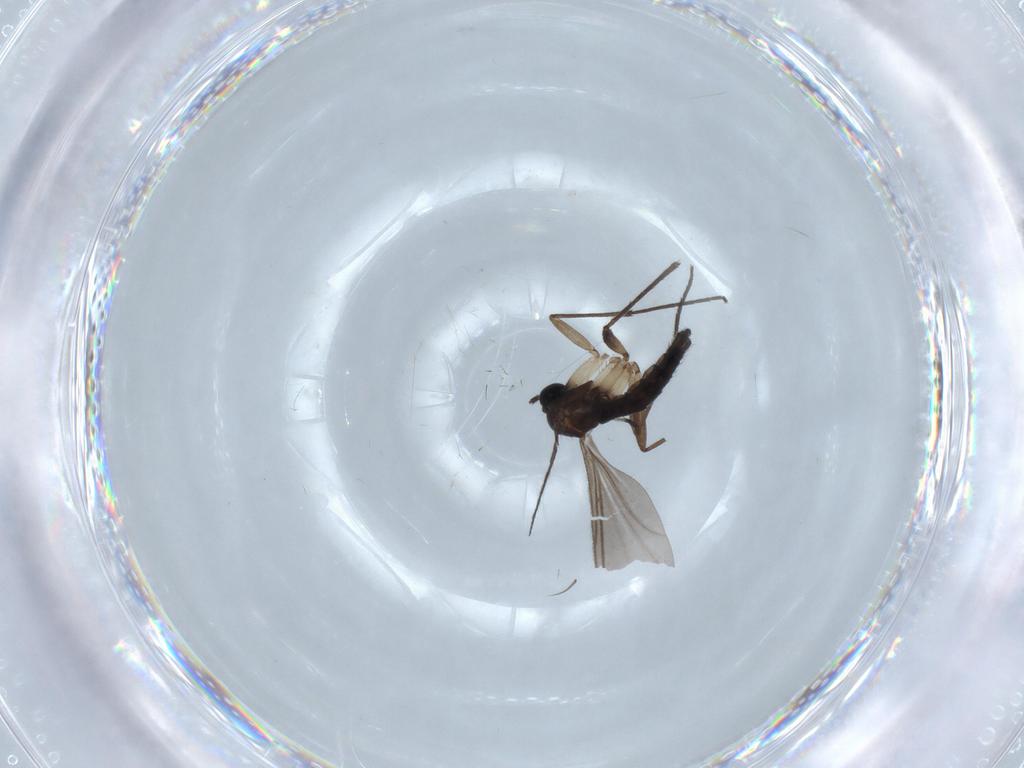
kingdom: Animalia
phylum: Arthropoda
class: Insecta
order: Diptera
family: Sciaridae
